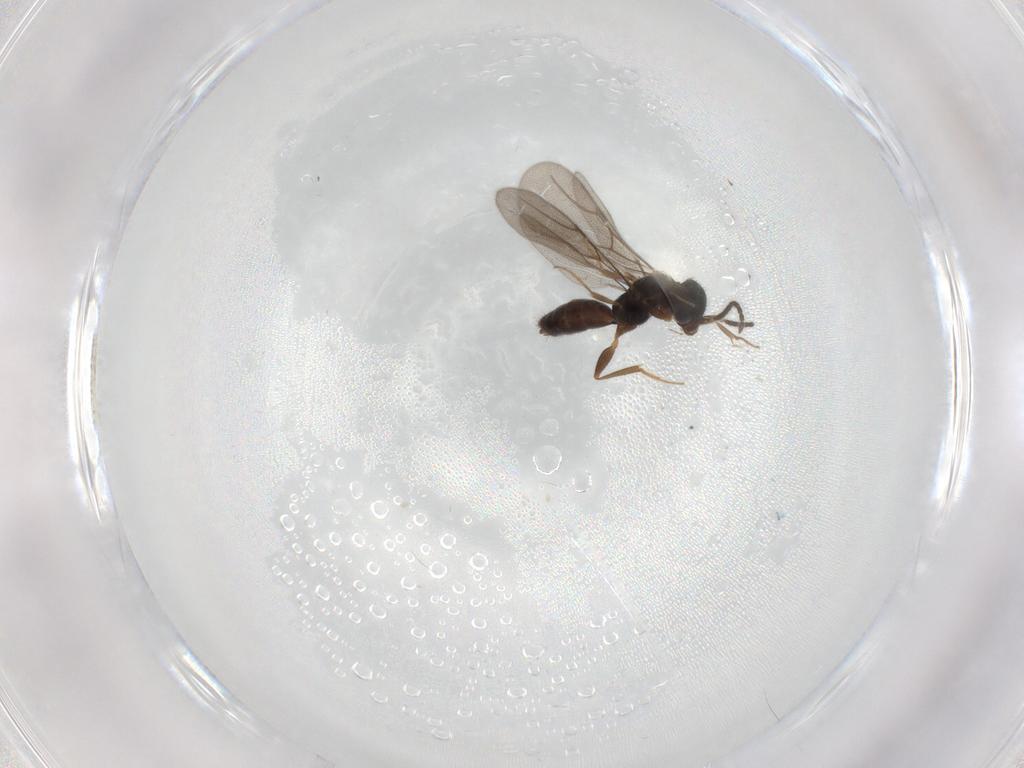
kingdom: Animalia
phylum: Arthropoda
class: Insecta
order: Hymenoptera
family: Bethylidae
